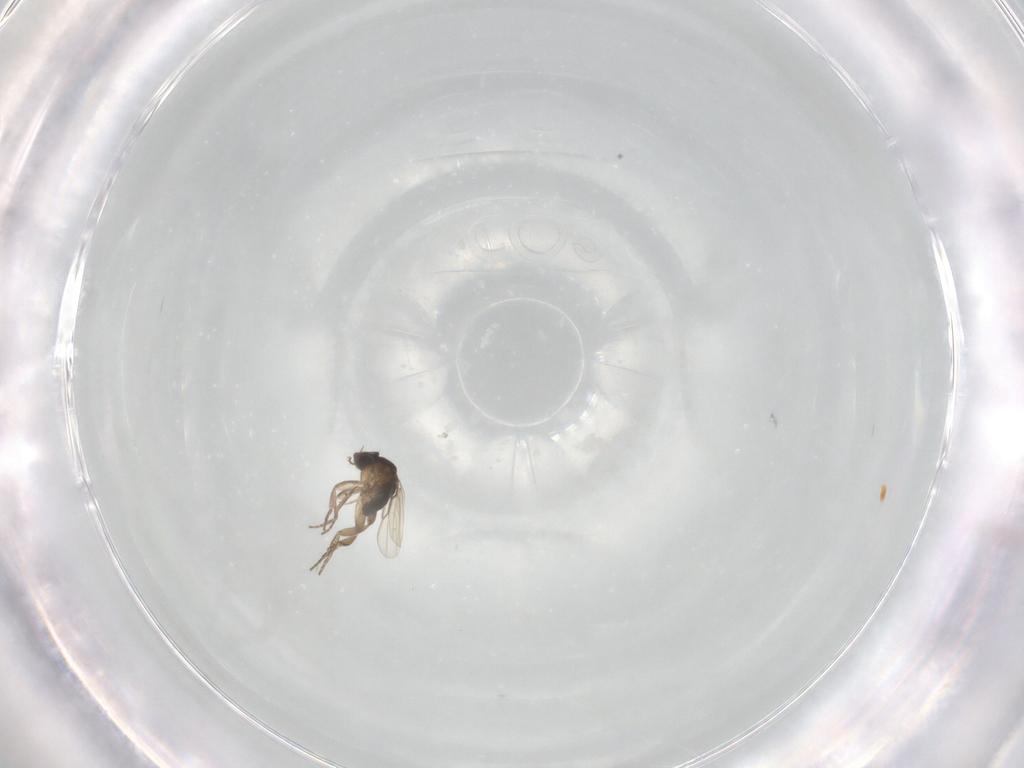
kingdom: Animalia
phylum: Arthropoda
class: Insecta
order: Diptera
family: Phoridae
